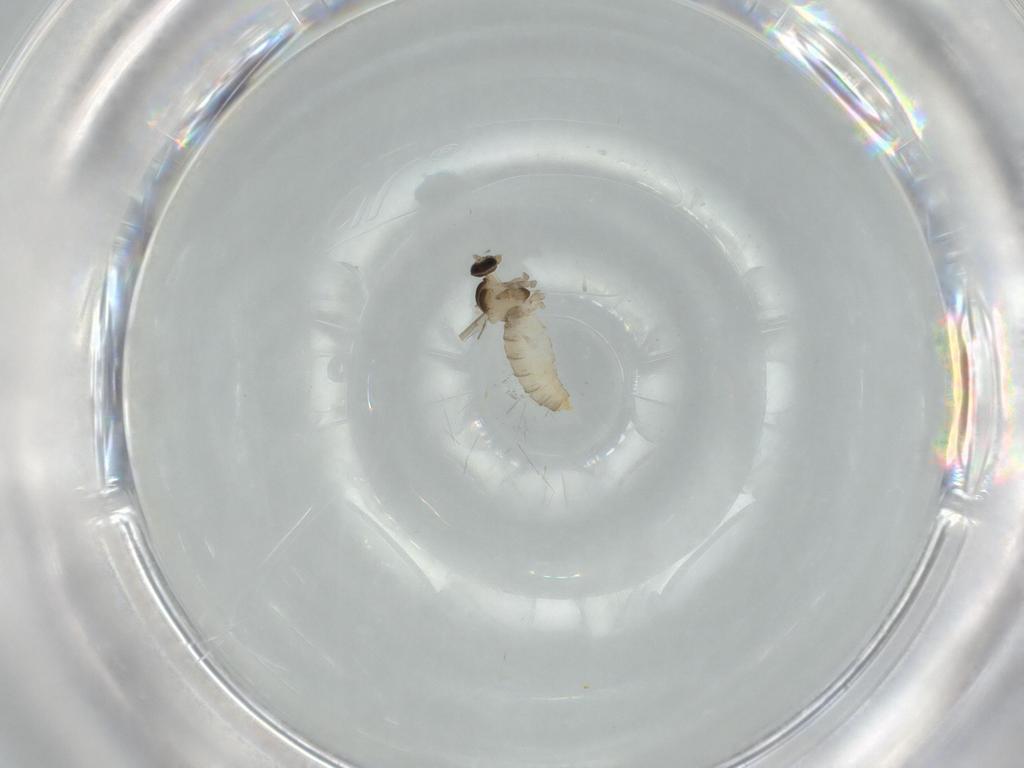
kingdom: Animalia
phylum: Arthropoda
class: Insecta
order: Diptera
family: Cecidomyiidae
